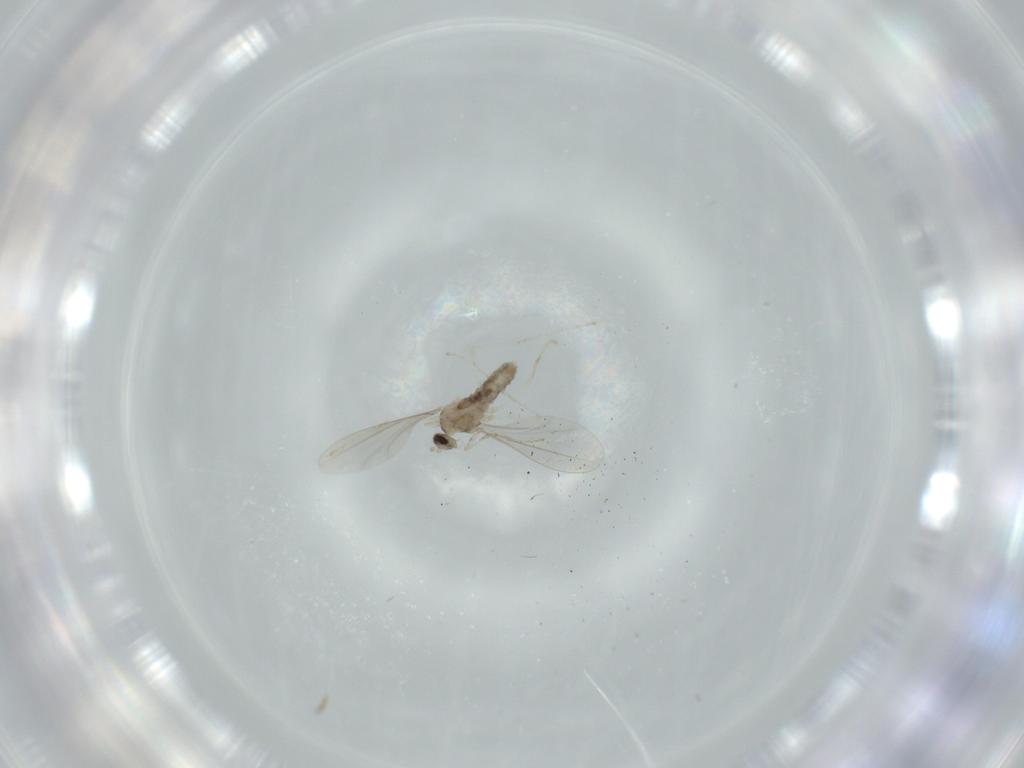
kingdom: Animalia
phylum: Arthropoda
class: Insecta
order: Diptera
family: Cecidomyiidae
